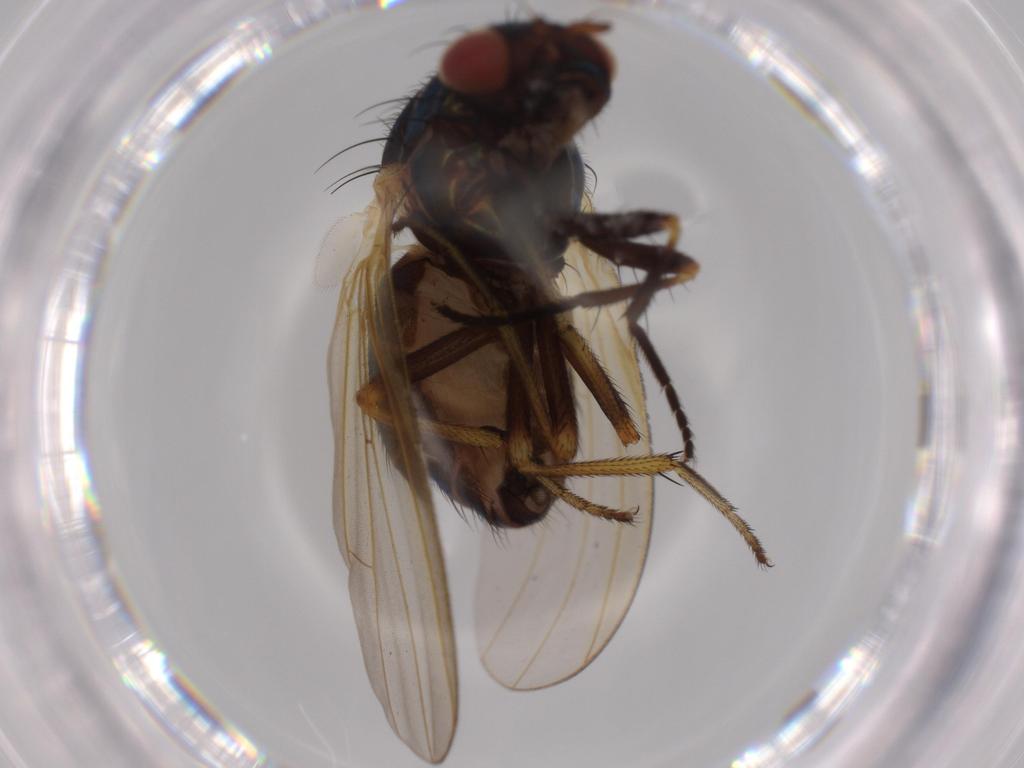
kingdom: Animalia
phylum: Arthropoda
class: Insecta
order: Diptera
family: Lauxaniidae
